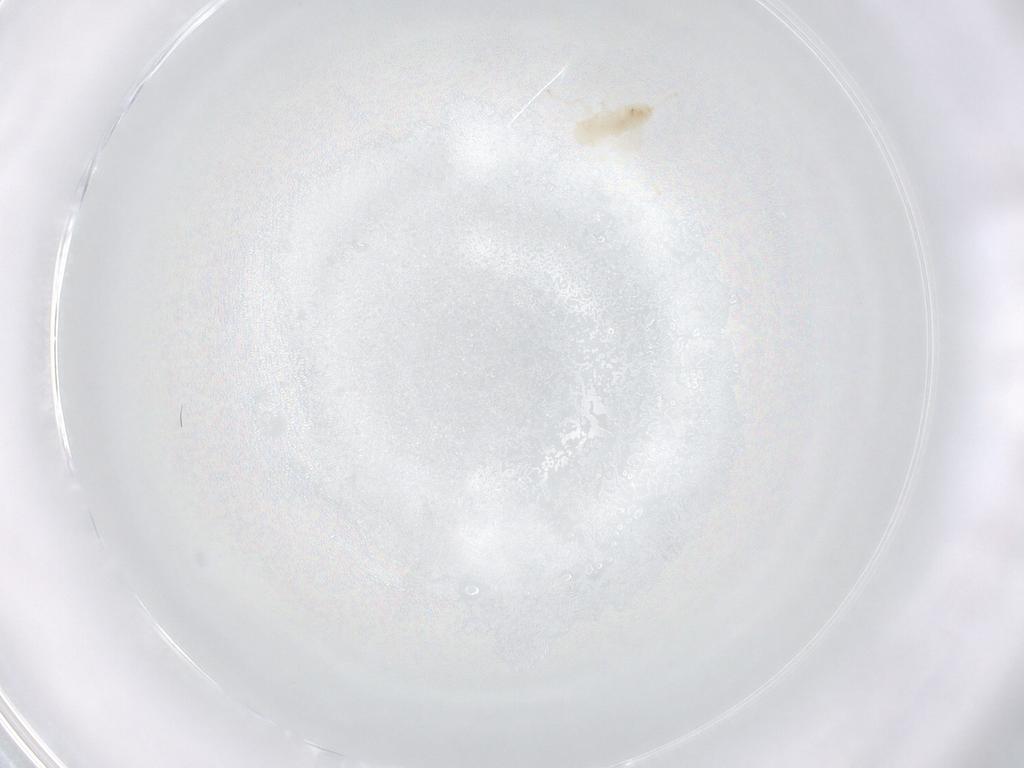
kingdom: Animalia
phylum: Arthropoda
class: Insecta
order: Diptera
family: Cecidomyiidae
